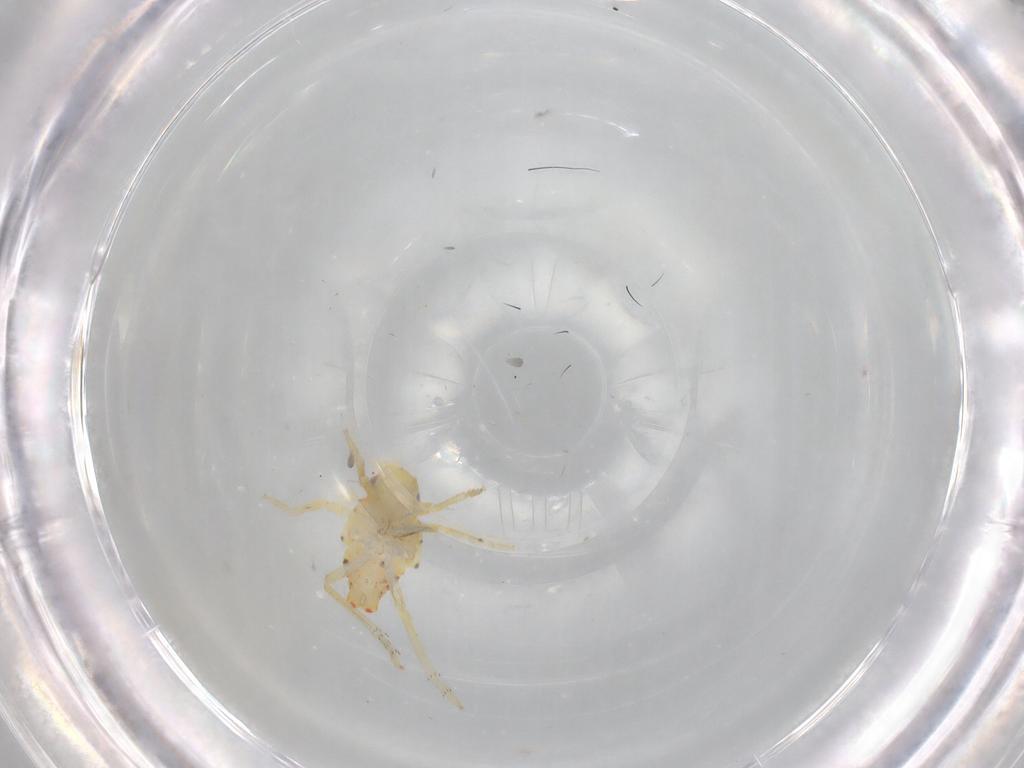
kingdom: Animalia
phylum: Arthropoda
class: Insecta
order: Hemiptera
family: Tropiduchidae
